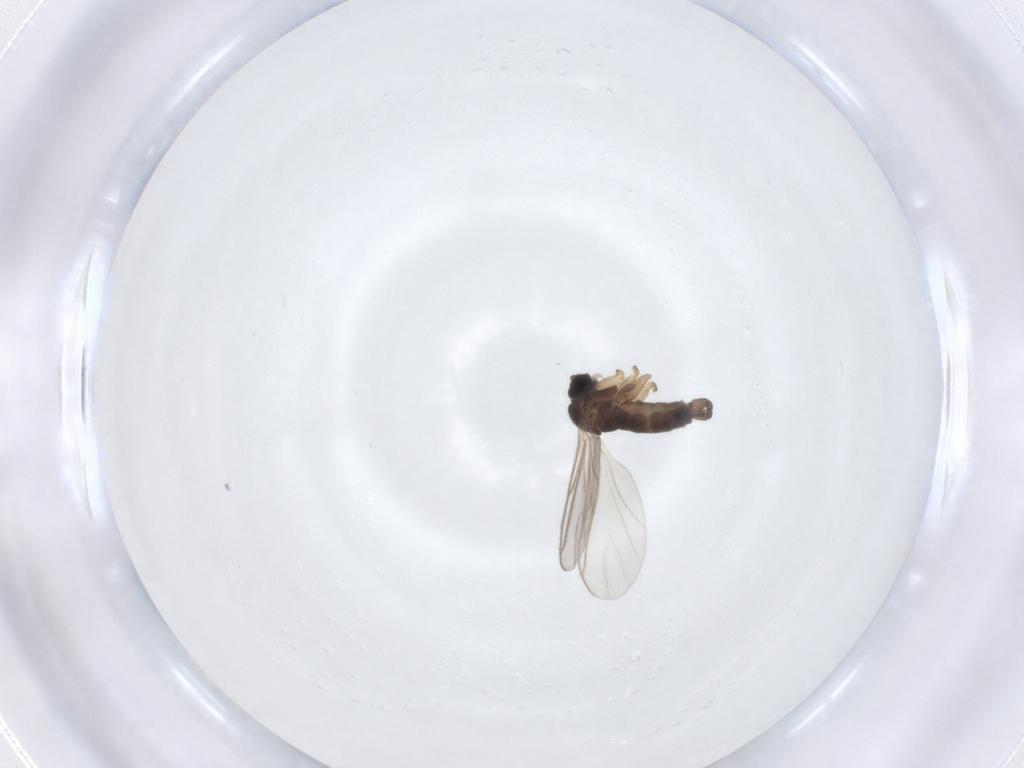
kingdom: Animalia
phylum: Arthropoda
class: Insecta
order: Diptera
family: Sciaridae
